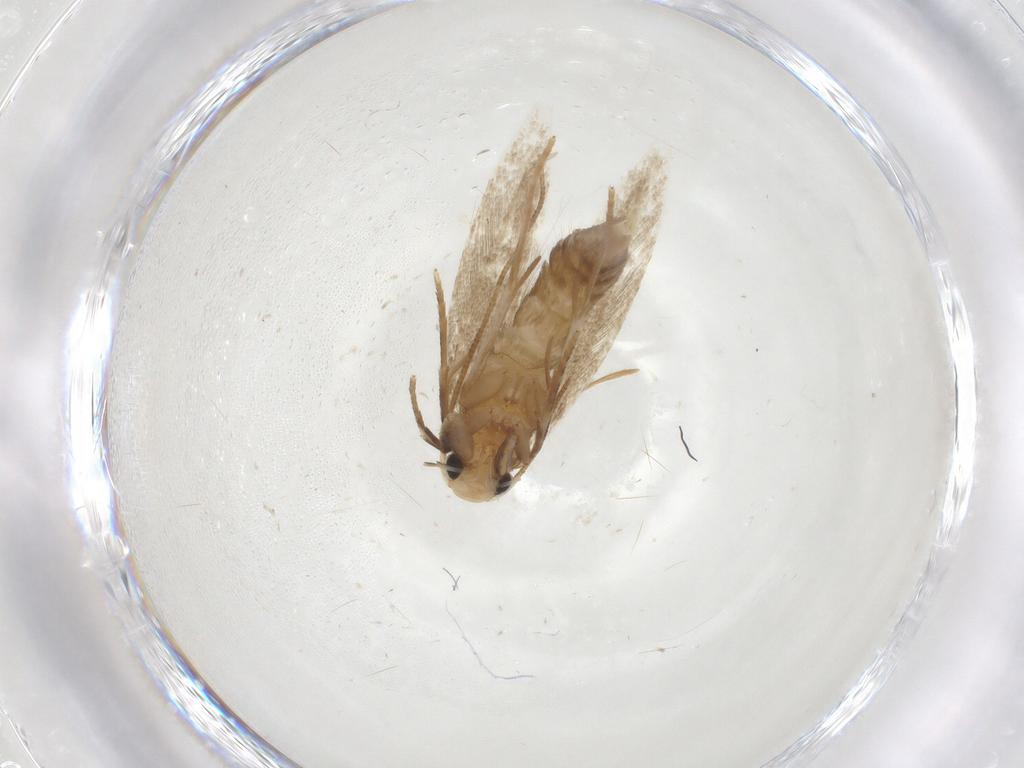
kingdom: Animalia
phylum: Arthropoda
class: Insecta
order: Lepidoptera
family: Tineidae
